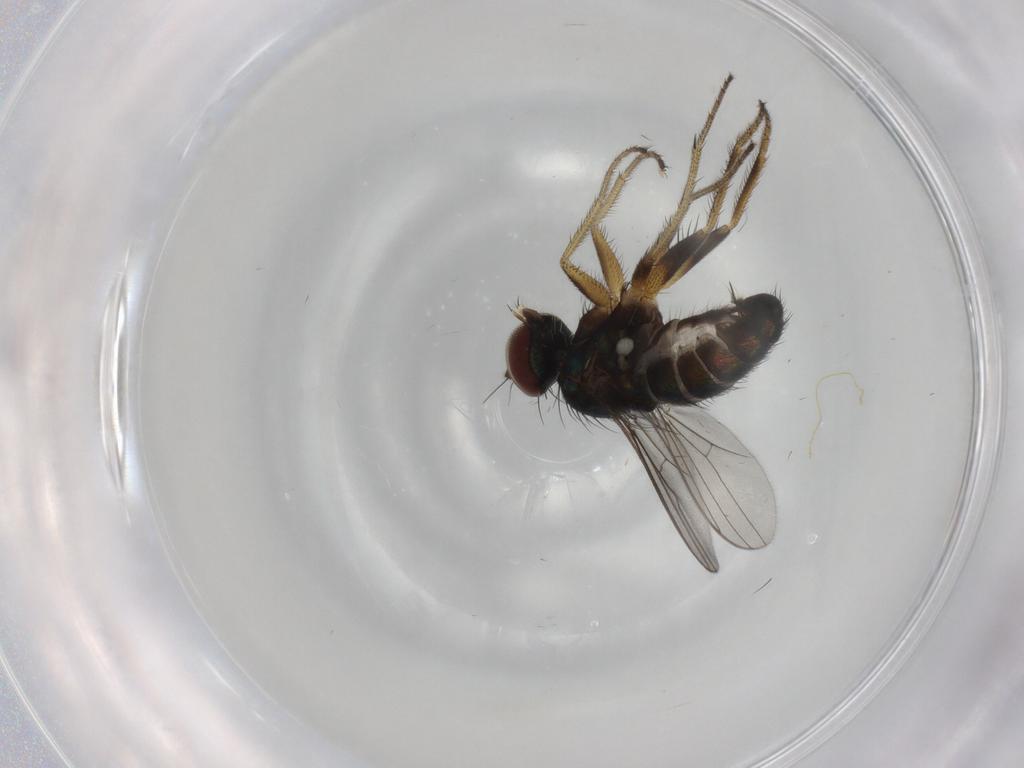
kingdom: Animalia
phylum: Arthropoda
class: Insecta
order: Diptera
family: Dolichopodidae
